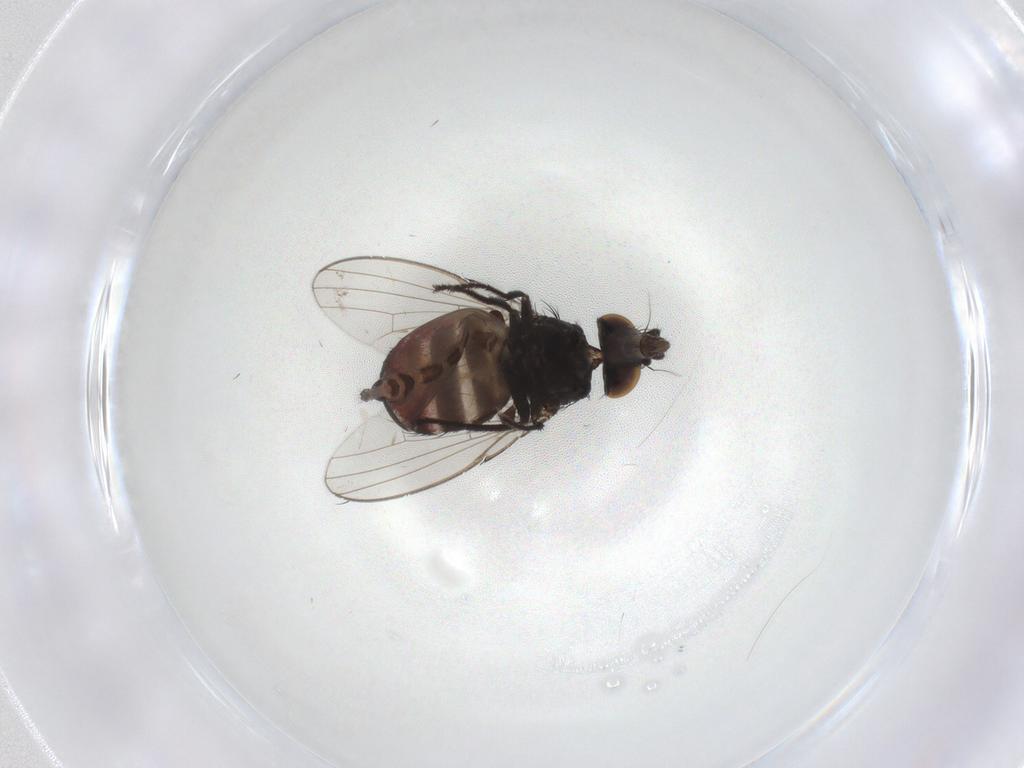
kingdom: Animalia
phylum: Arthropoda
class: Insecta
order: Diptera
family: Milichiidae
